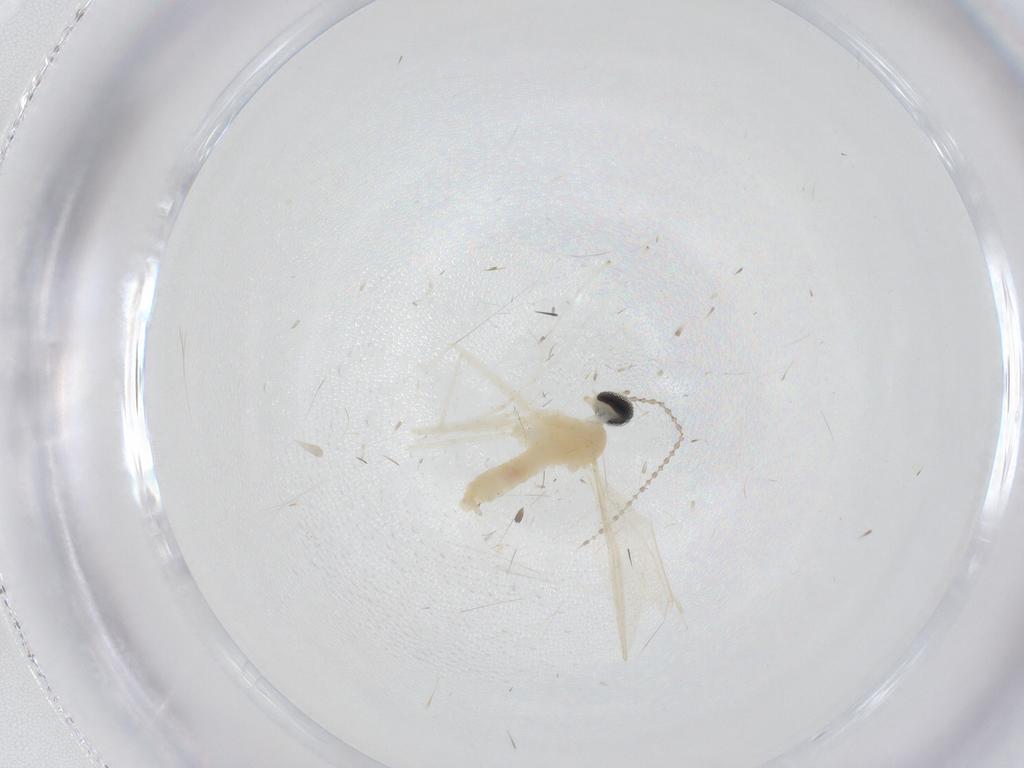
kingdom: Animalia
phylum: Arthropoda
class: Insecta
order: Diptera
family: Cecidomyiidae
